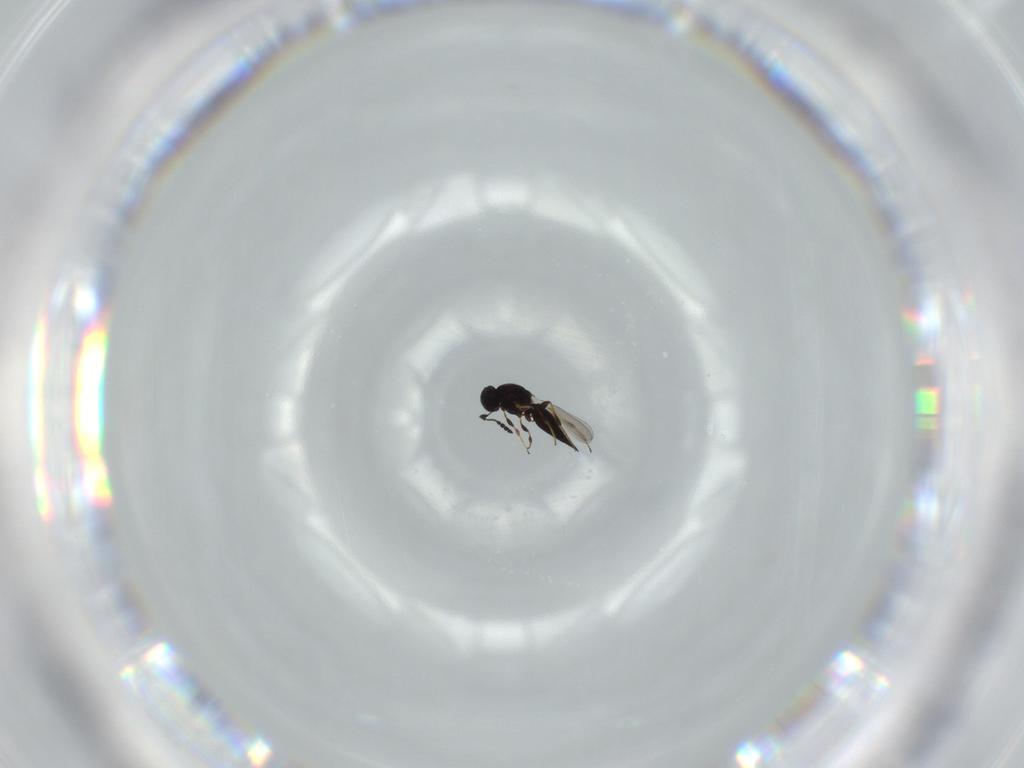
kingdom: Animalia
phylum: Arthropoda
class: Insecta
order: Hymenoptera
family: Platygastridae
